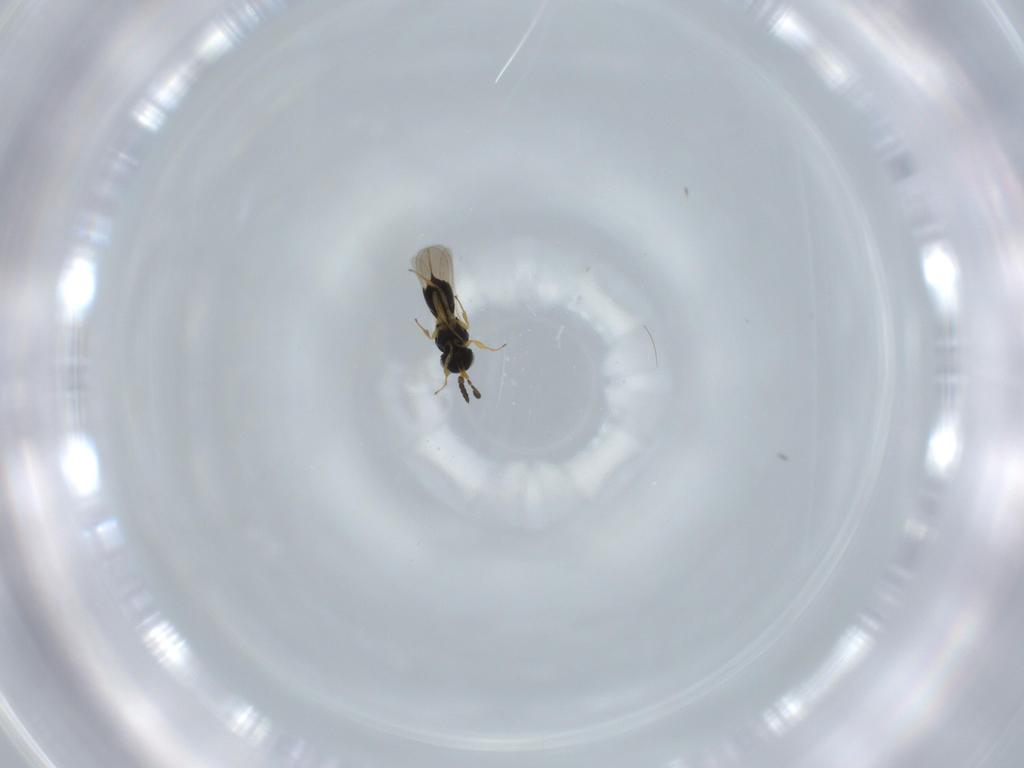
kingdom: Animalia
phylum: Arthropoda
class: Insecta
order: Hymenoptera
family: Scelionidae
